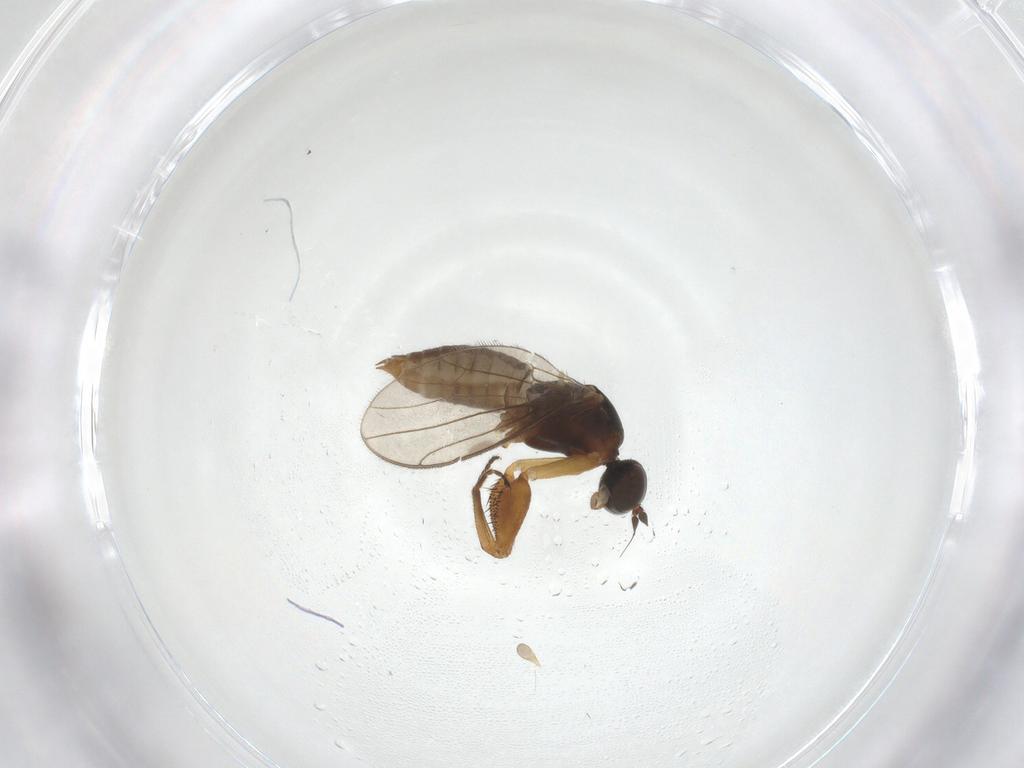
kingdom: Animalia
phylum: Arthropoda
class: Insecta
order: Diptera
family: Empididae
